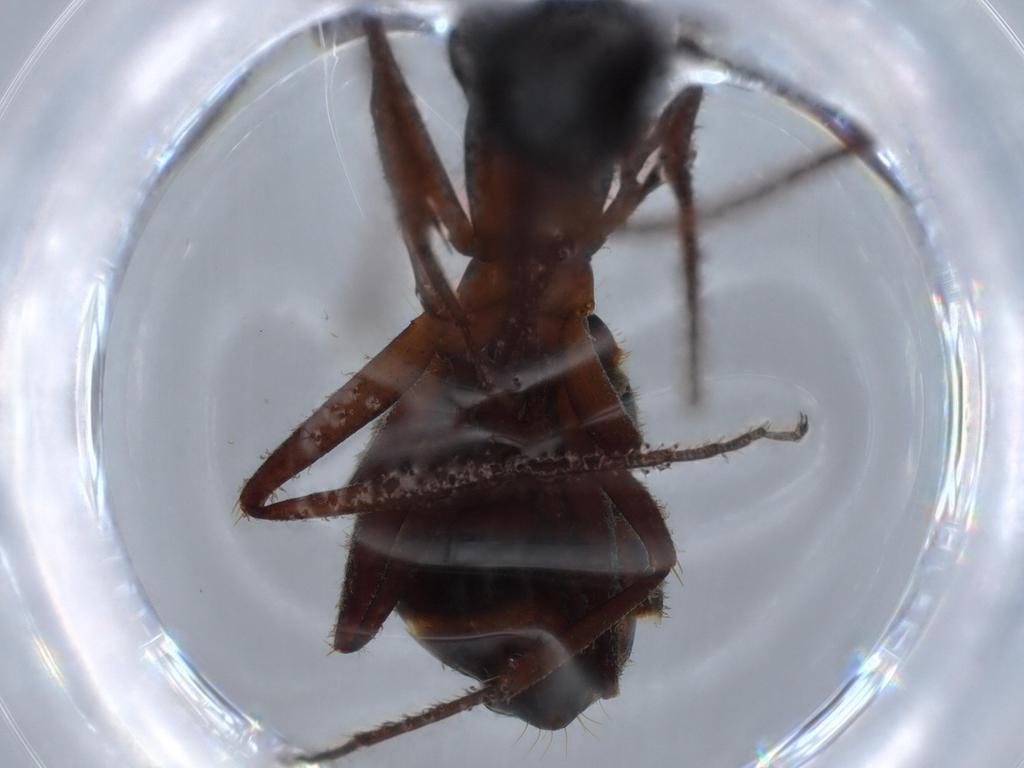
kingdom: Animalia
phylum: Arthropoda
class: Insecta
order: Hymenoptera
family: Formicidae
